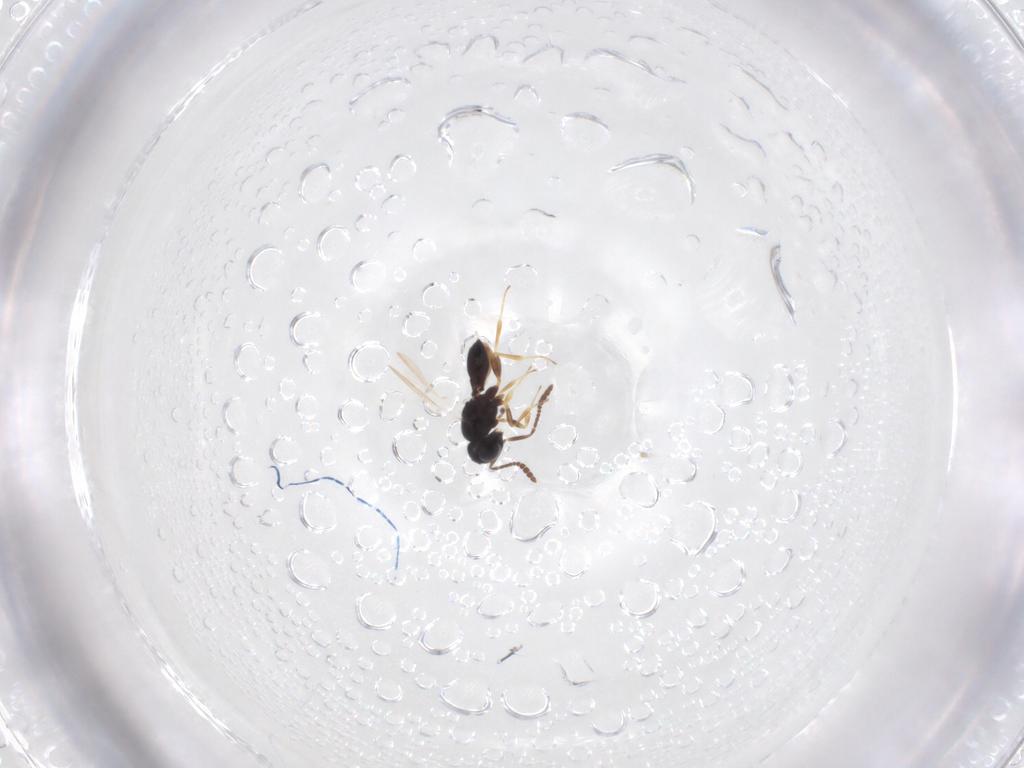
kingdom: Animalia
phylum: Arthropoda
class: Insecta
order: Hymenoptera
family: Scelionidae
